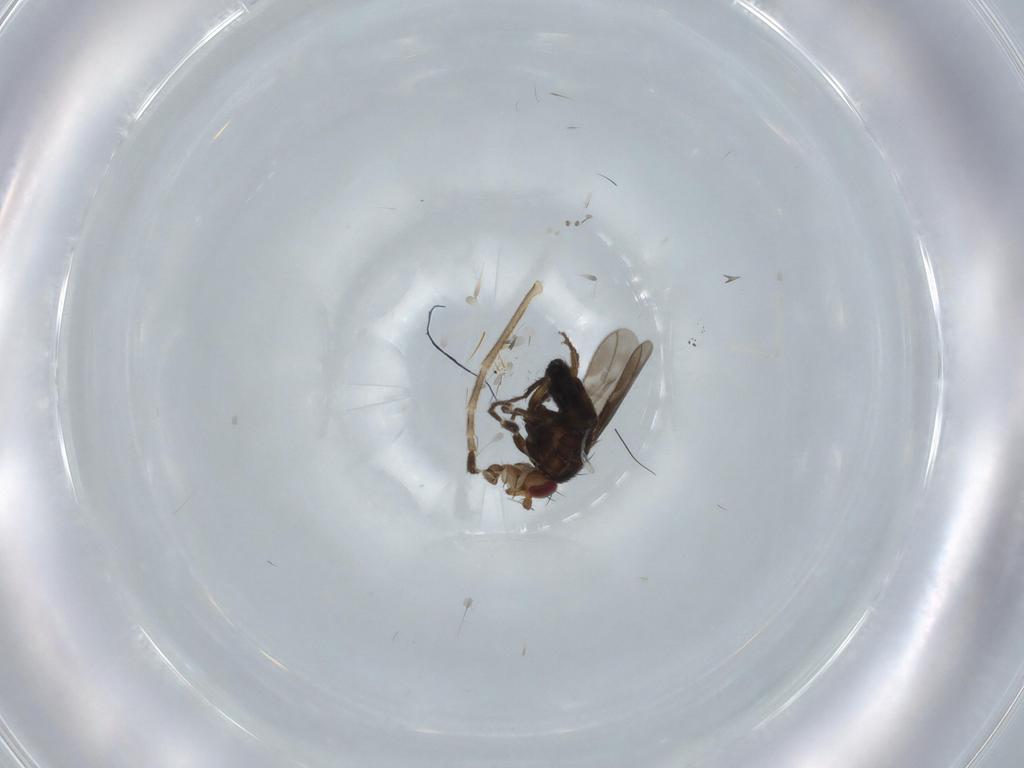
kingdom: Animalia
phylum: Arthropoda
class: Insecta
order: Diptera
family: Psychodidae
